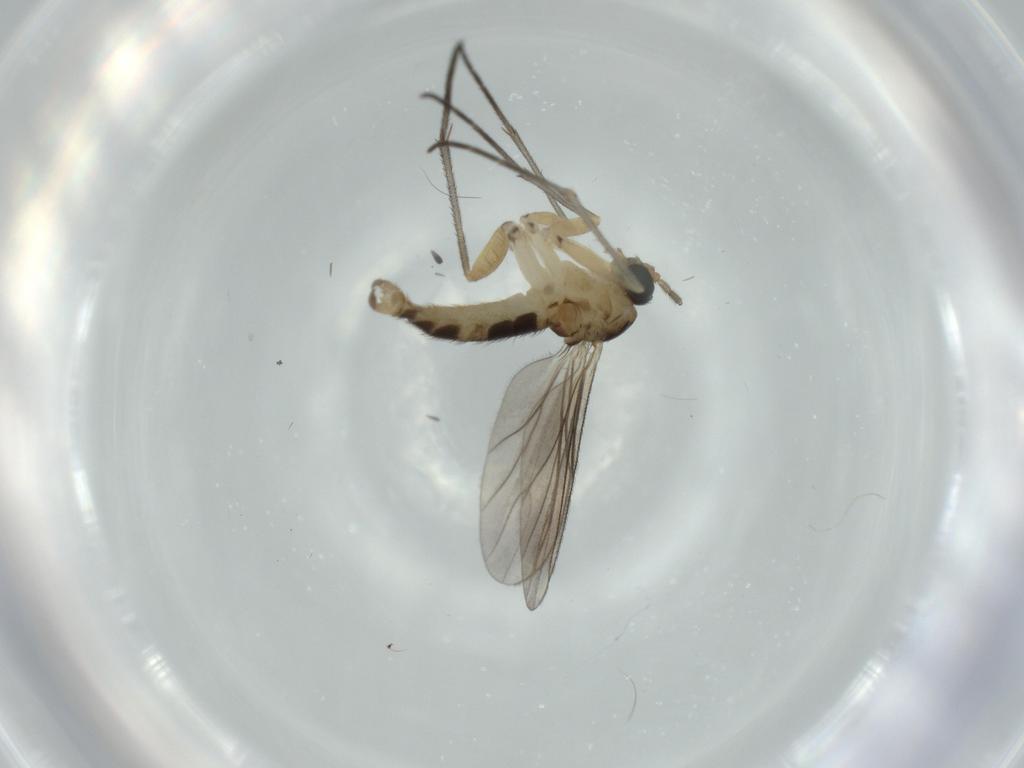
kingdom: Animalia
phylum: Arthropoda
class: Insecta
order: Diptera
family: Sciaridae
